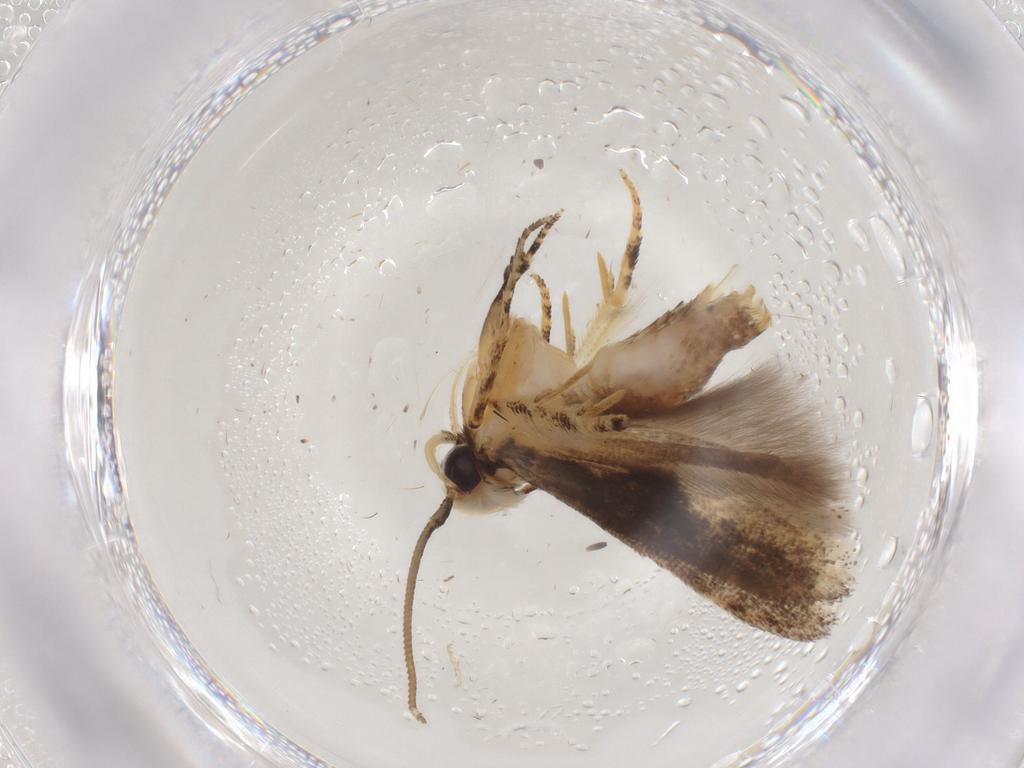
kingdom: Animalia
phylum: Arthropoda
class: Insecta
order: Lepidoptera
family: Gelechiidae
